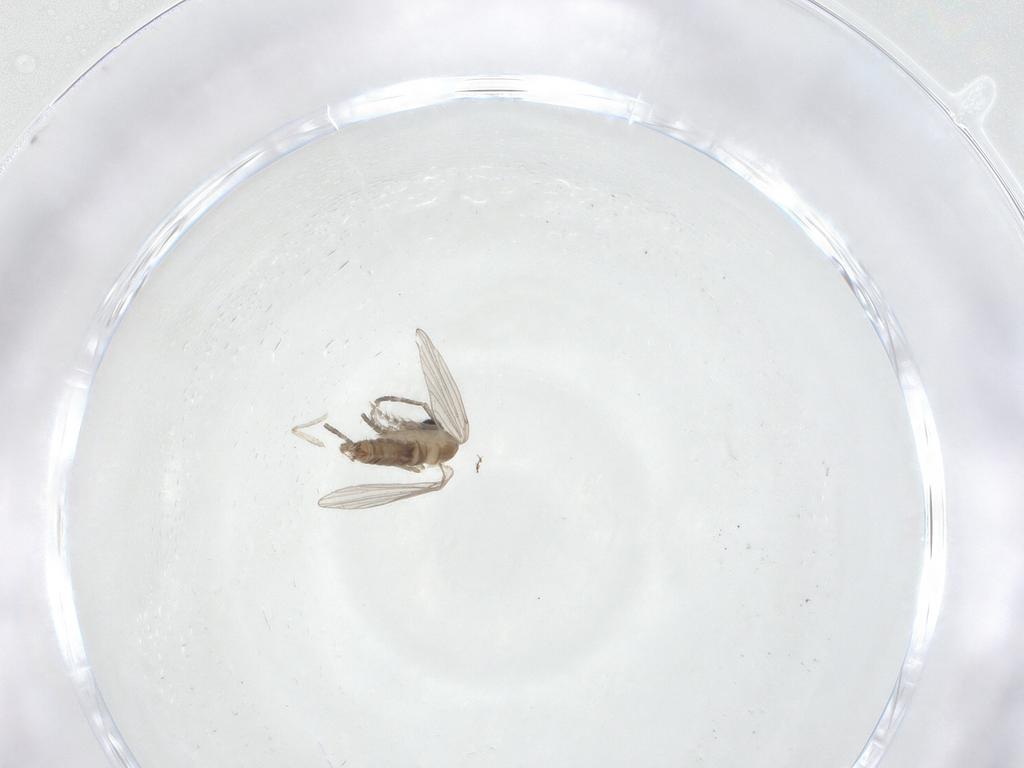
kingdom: Animalia
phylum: Arthropoda
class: Insecta
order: Diptera
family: Psychodidae
